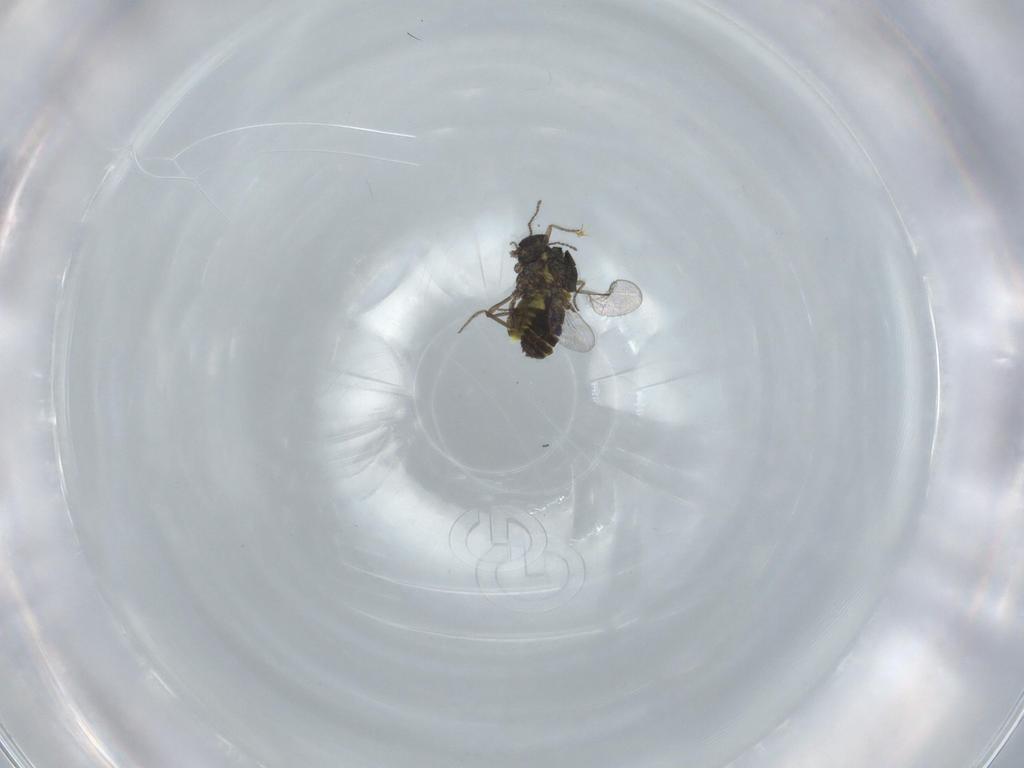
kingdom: Animalia
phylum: Arthropoda
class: Insecta
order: Diptera
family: Ceratopogonidae
